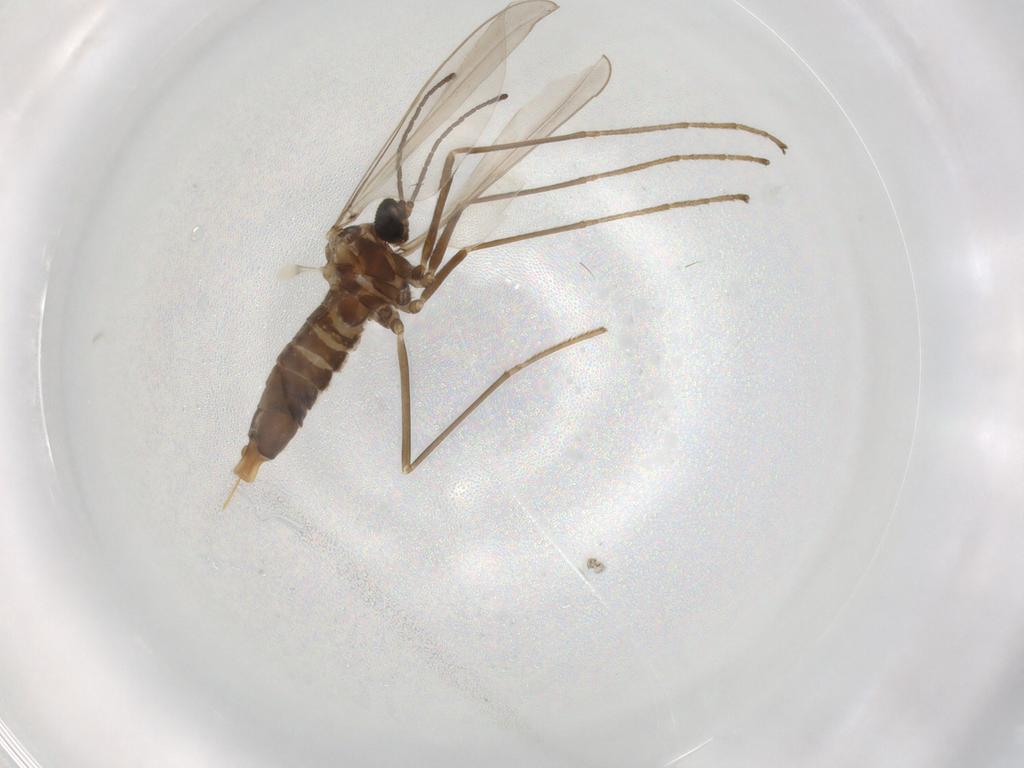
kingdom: Animalia
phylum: Arthropoda
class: Insecta
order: Diptera
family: Cecidomyiidae
